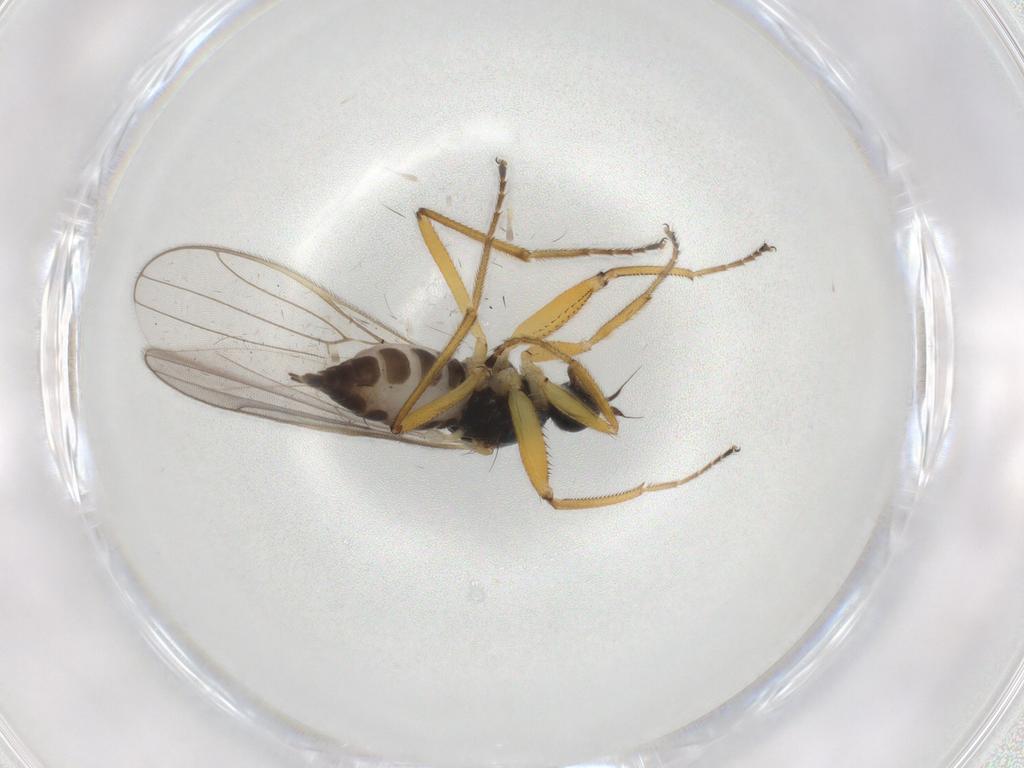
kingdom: Animalia
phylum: Arthropoda
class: Insecta
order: Diptera
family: Hybotidae
